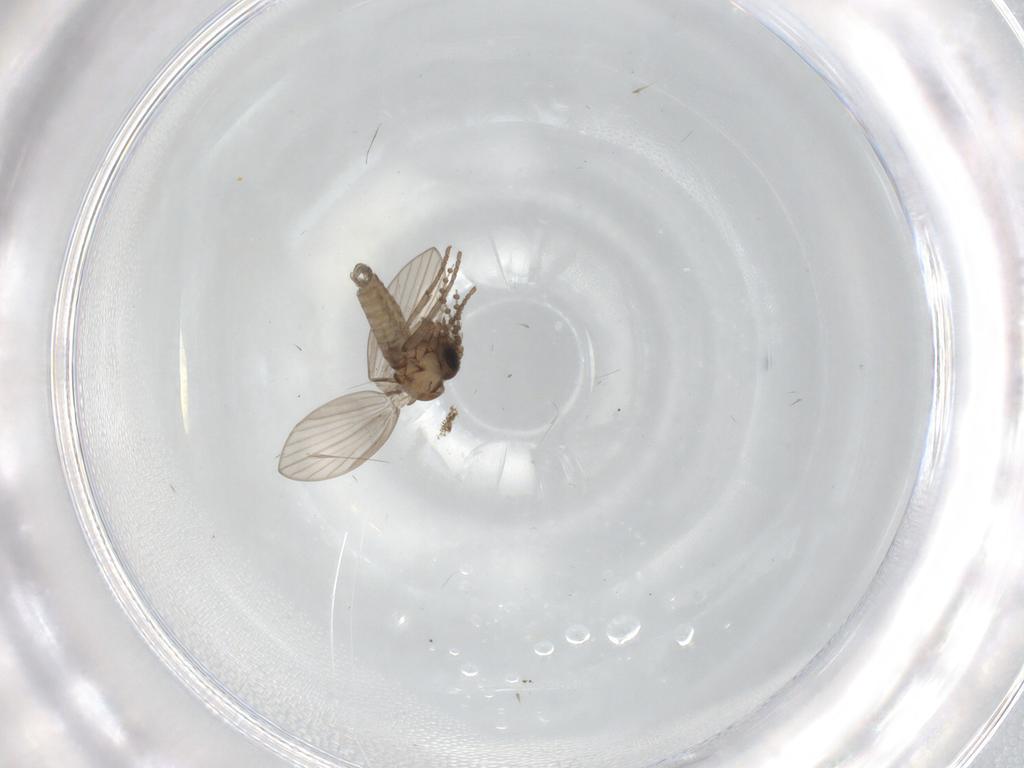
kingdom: Animalia
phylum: Arthropoda
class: Insecta
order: Diptera
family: Psychodidae
